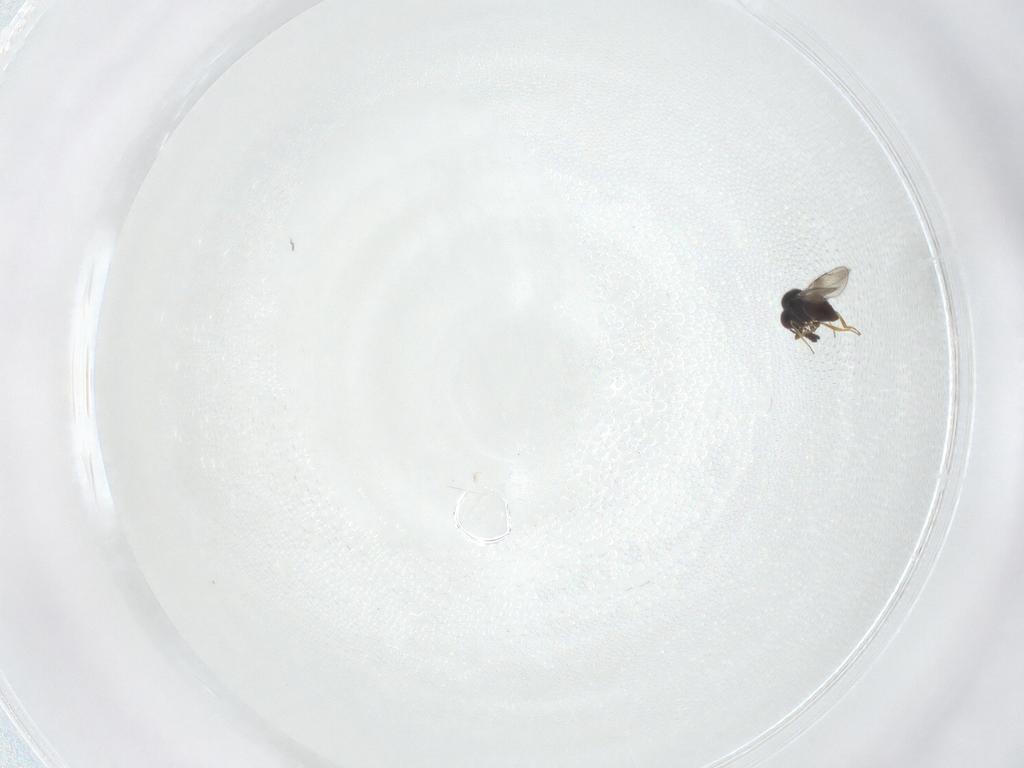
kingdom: Animalia
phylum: Arthropoda
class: Insecta
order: Hymenoptera
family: Ceraphronidae
